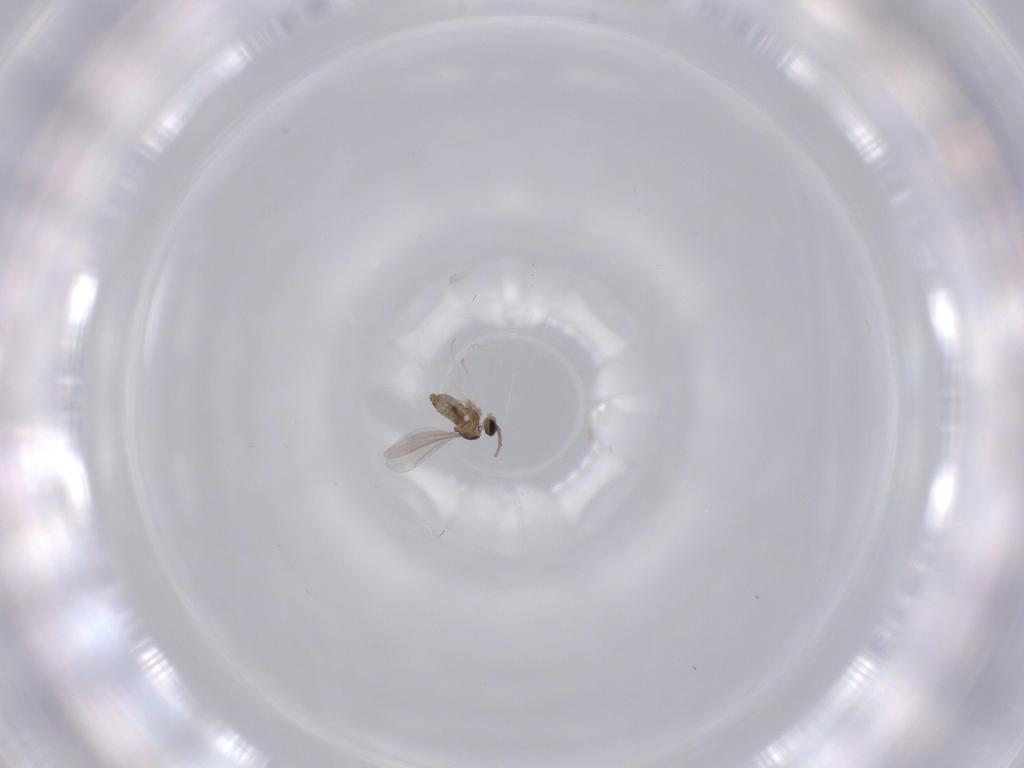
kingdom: Animalia
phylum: Arthropoda
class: Insecta
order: Diptera
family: Cecidomyiidae
